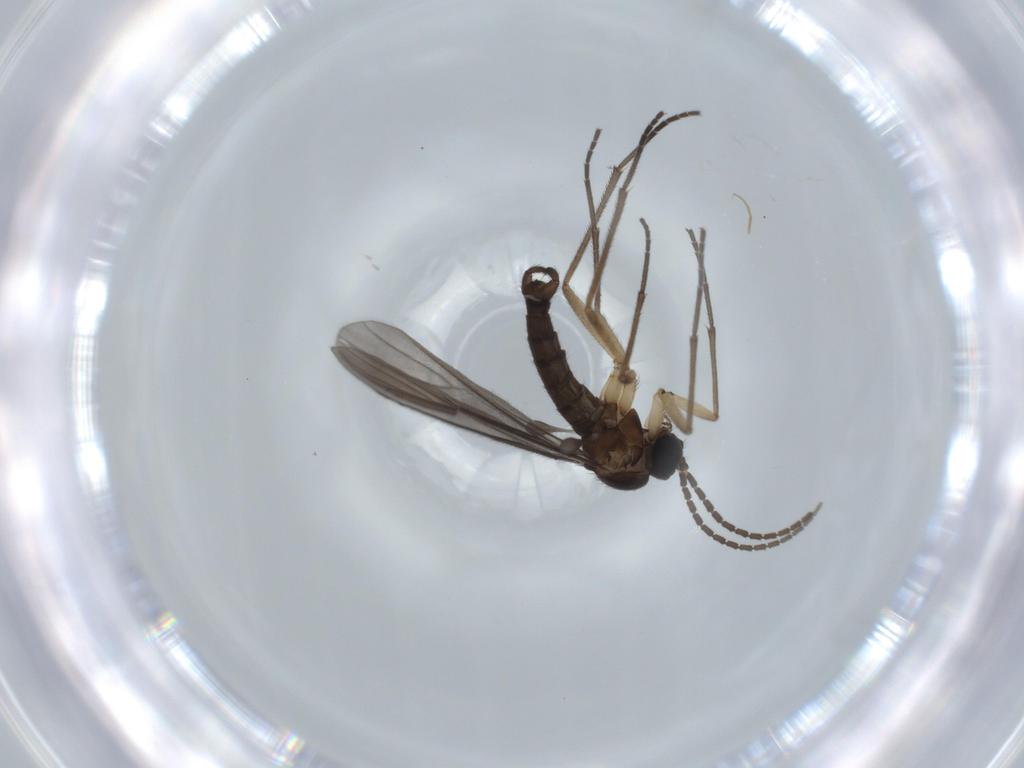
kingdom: Animalia
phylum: Arthropoda
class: Insecta
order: Diptera
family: Sciaridae
